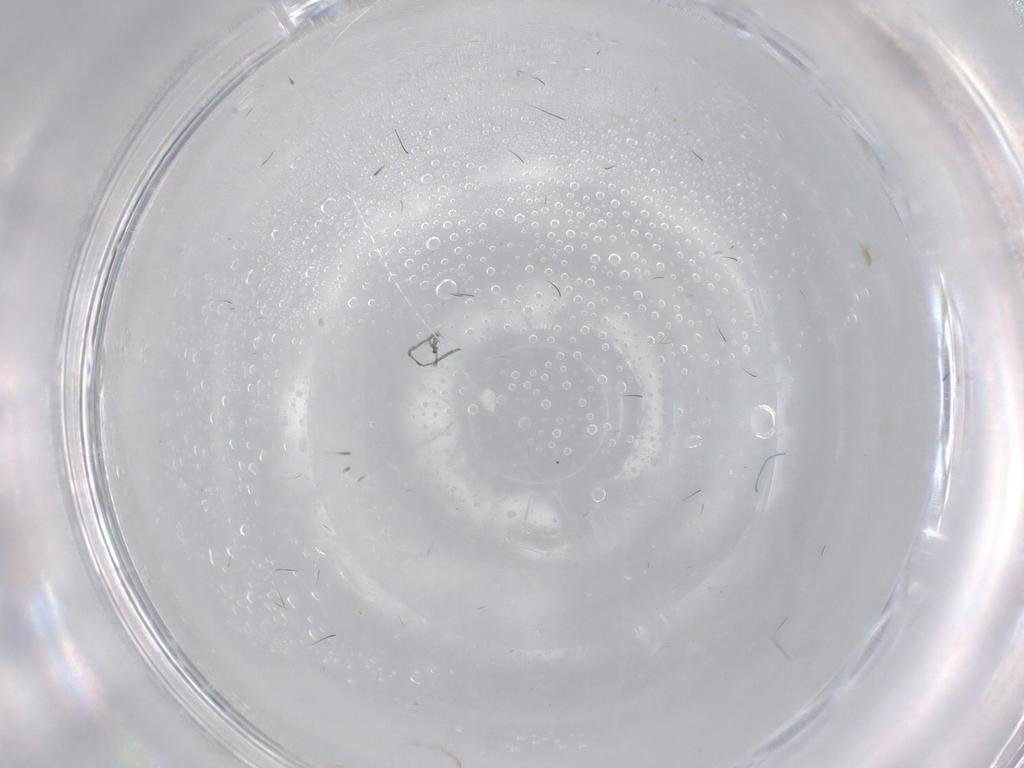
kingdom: Animalia
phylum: Arthropoda
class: Insecta
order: Diptera
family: Phoridae
